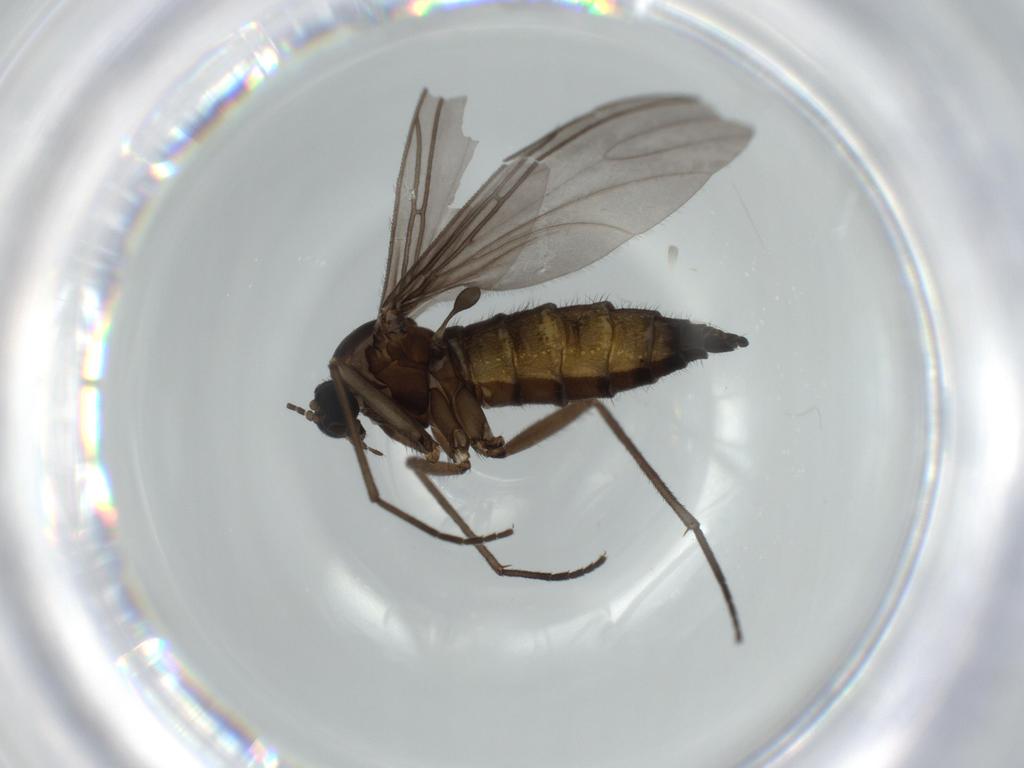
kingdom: Animalia
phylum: Arthropoda
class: Insecta
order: Diptera
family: Sciaridae
